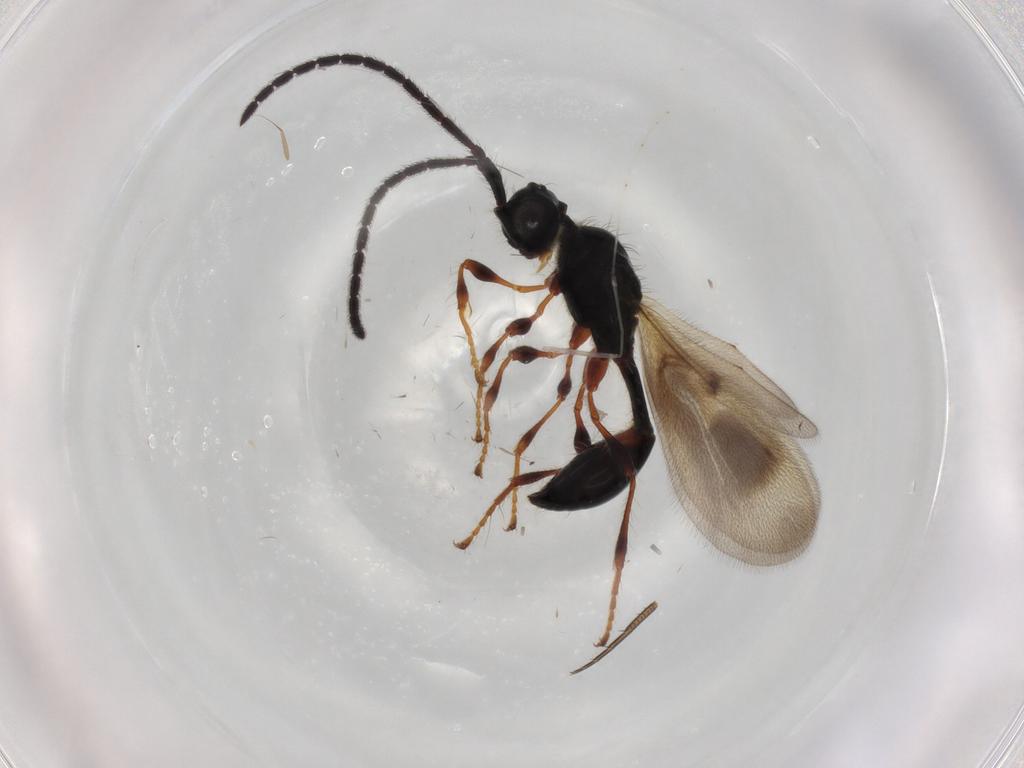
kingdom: Animalia
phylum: Arthropoda
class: Insecta
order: Hymenoptera
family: Diapriidae
